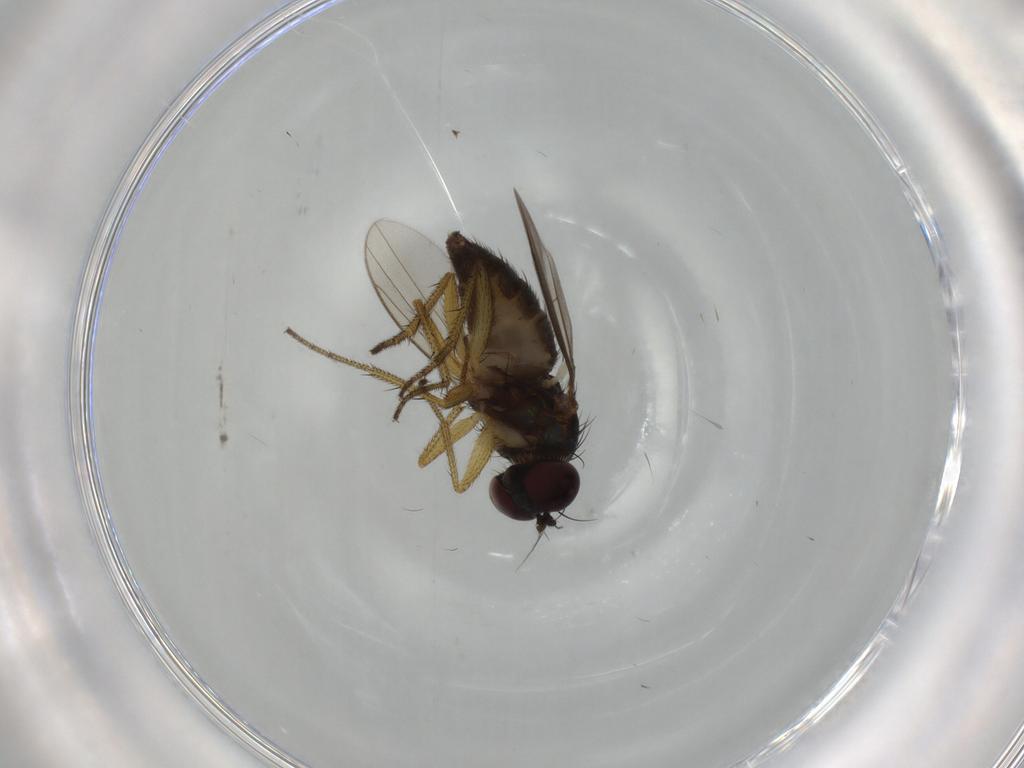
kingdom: Animalia
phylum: Arthropoda
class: Insecta
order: Diptera
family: Dolichopodidae
